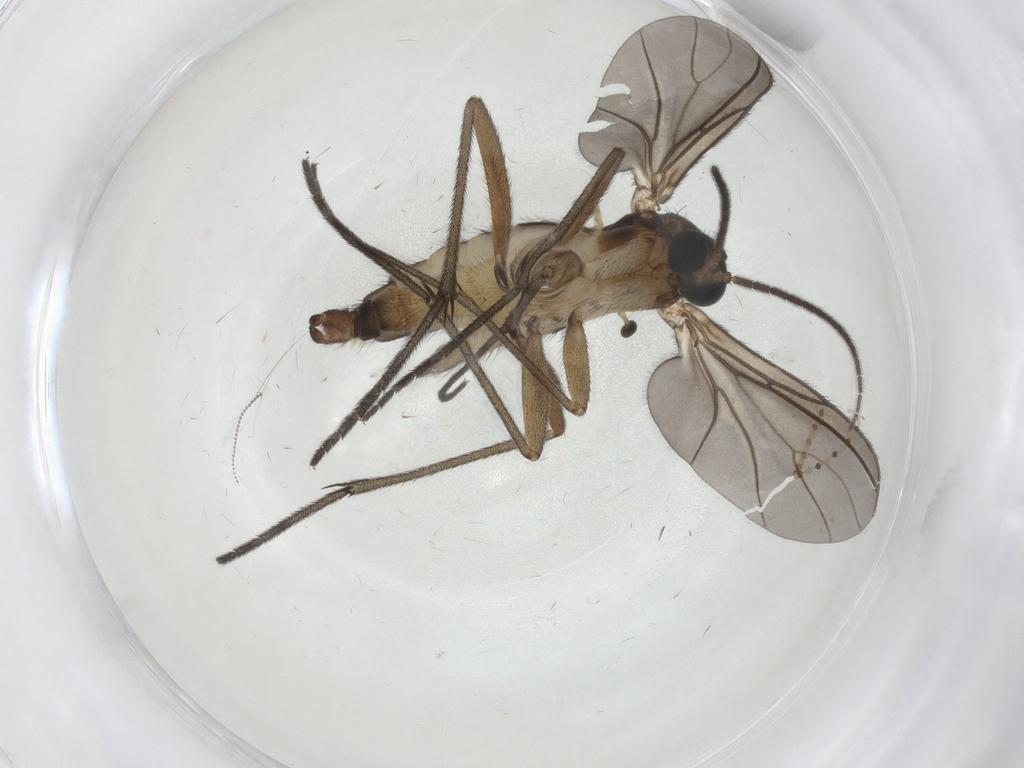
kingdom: Animalia
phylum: Arthropoda
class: Insecta
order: Diptera
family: Sciaridae
